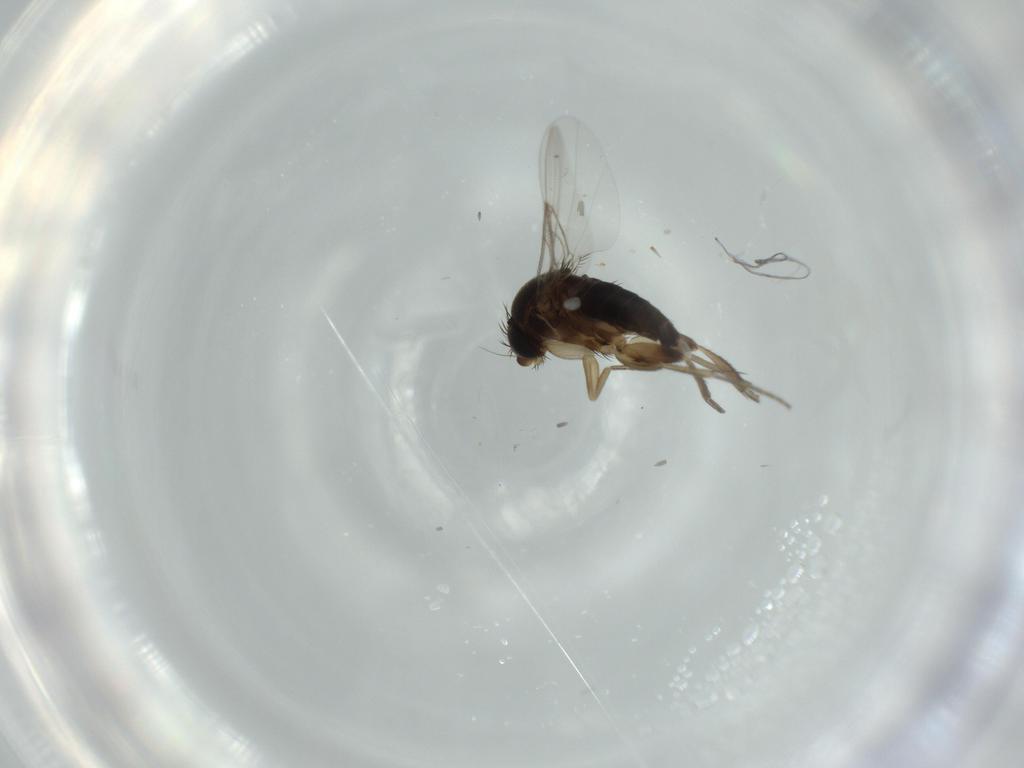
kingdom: Animalia
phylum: Arthropoda
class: Insecta
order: Diptera
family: Phoridae
